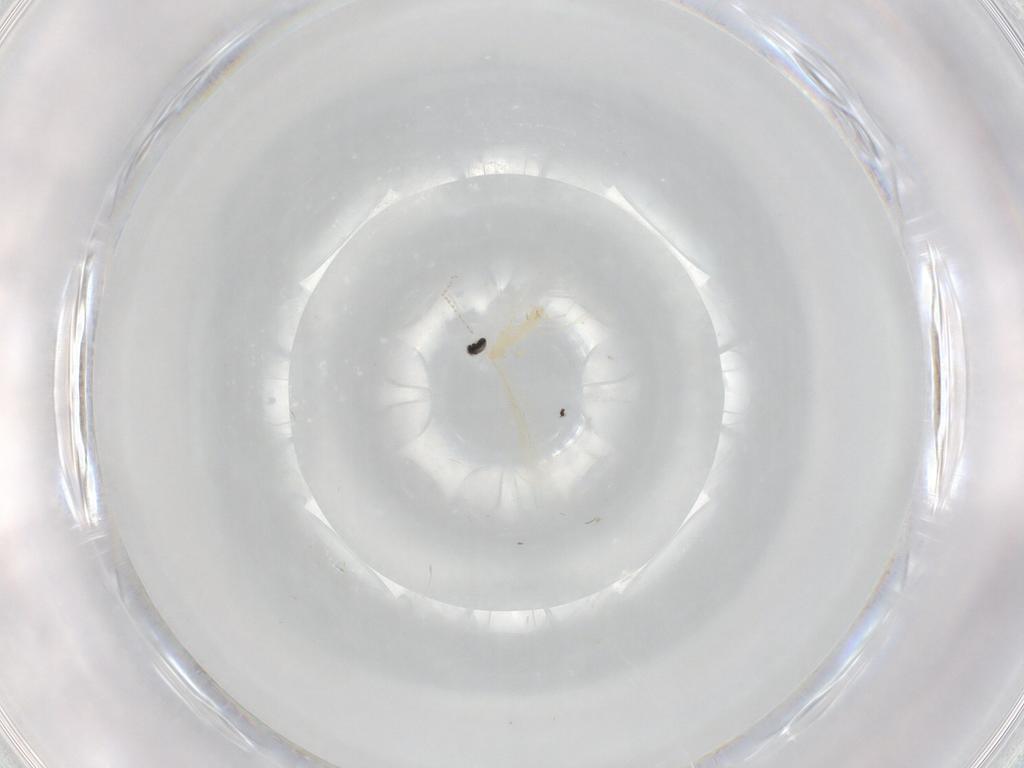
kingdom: Animalia
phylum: Arthropoda
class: Insecta
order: Diptera
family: Cecidomyiidae
